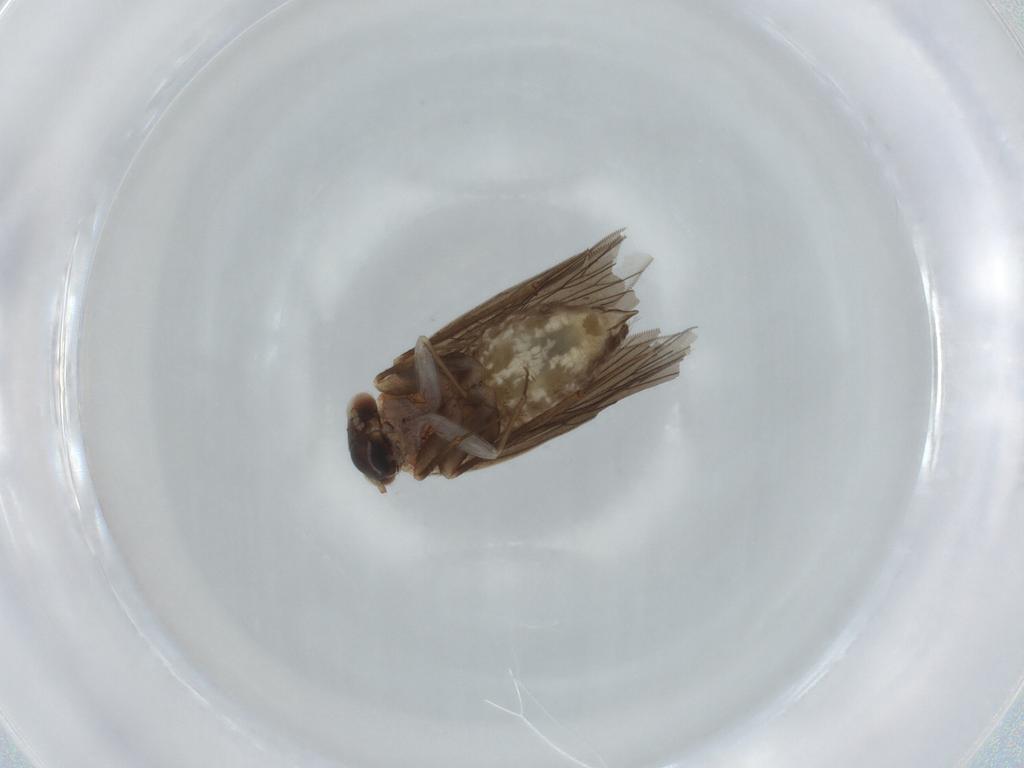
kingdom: Animalia
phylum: Arthropoda
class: Insecta
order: Psocodea
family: Lepidopsocidae
